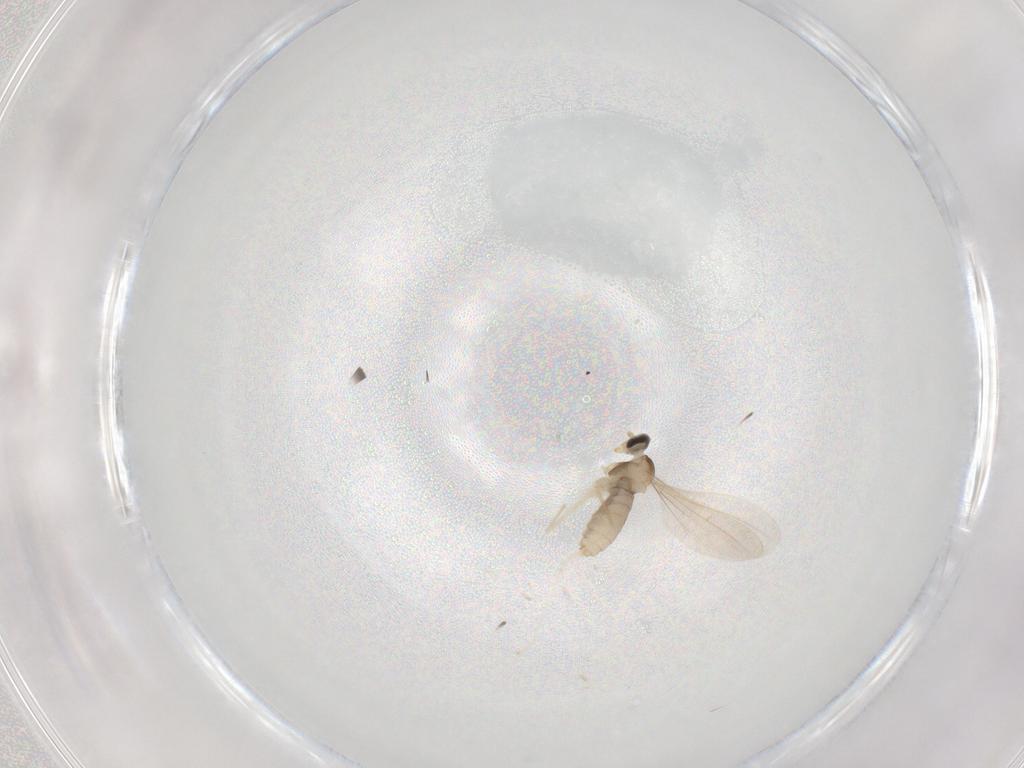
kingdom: Animalia
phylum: Arthropoda
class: Insecta
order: Diptera
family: Cecidomyiidae
